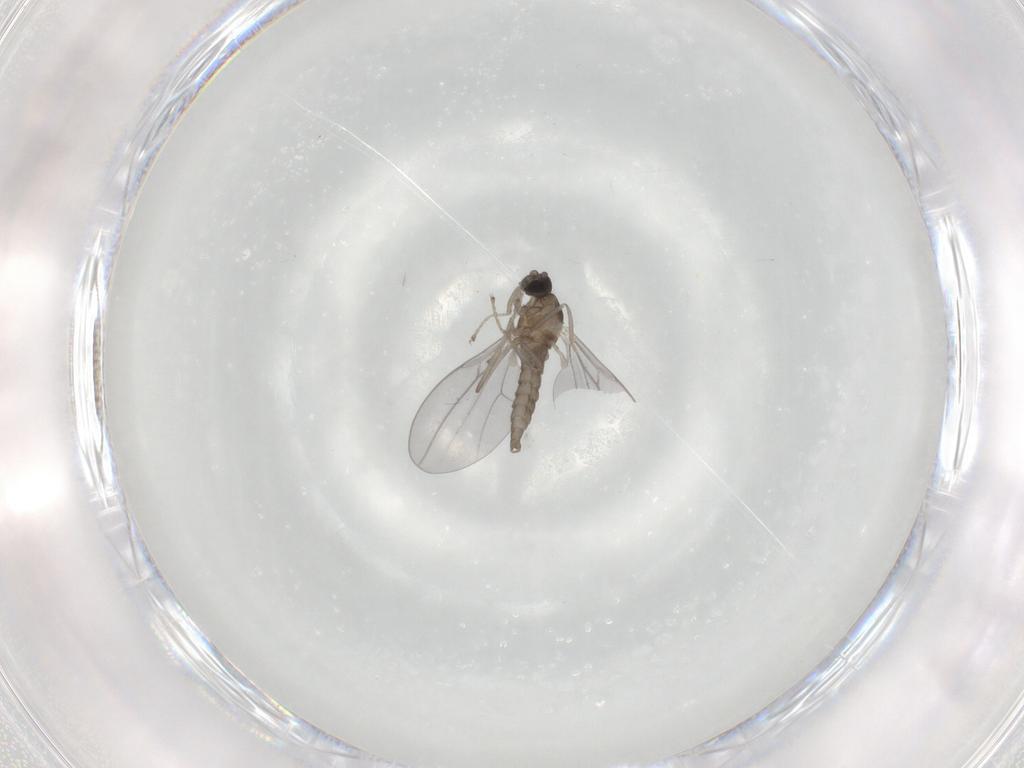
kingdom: Animalia
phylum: Arthropoda
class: Insecta
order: Diptera
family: Cecidomyiidae
